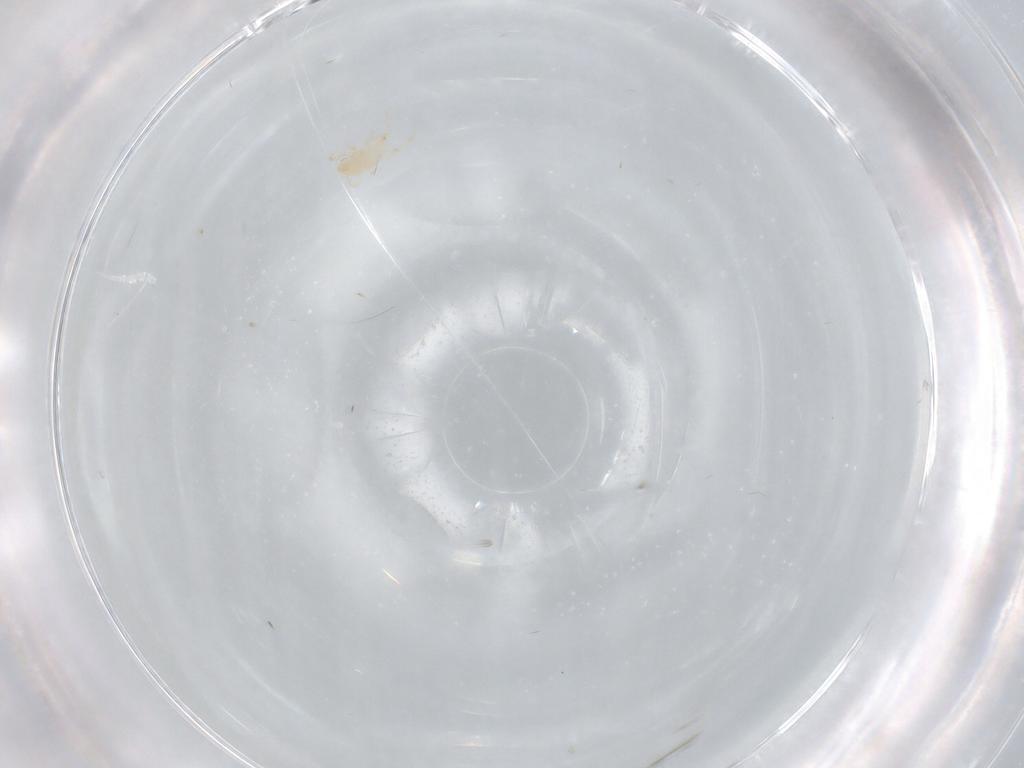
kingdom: Animalia
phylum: Arthropoda
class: Arachnida
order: Mesostigmata
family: Blattisociidae
